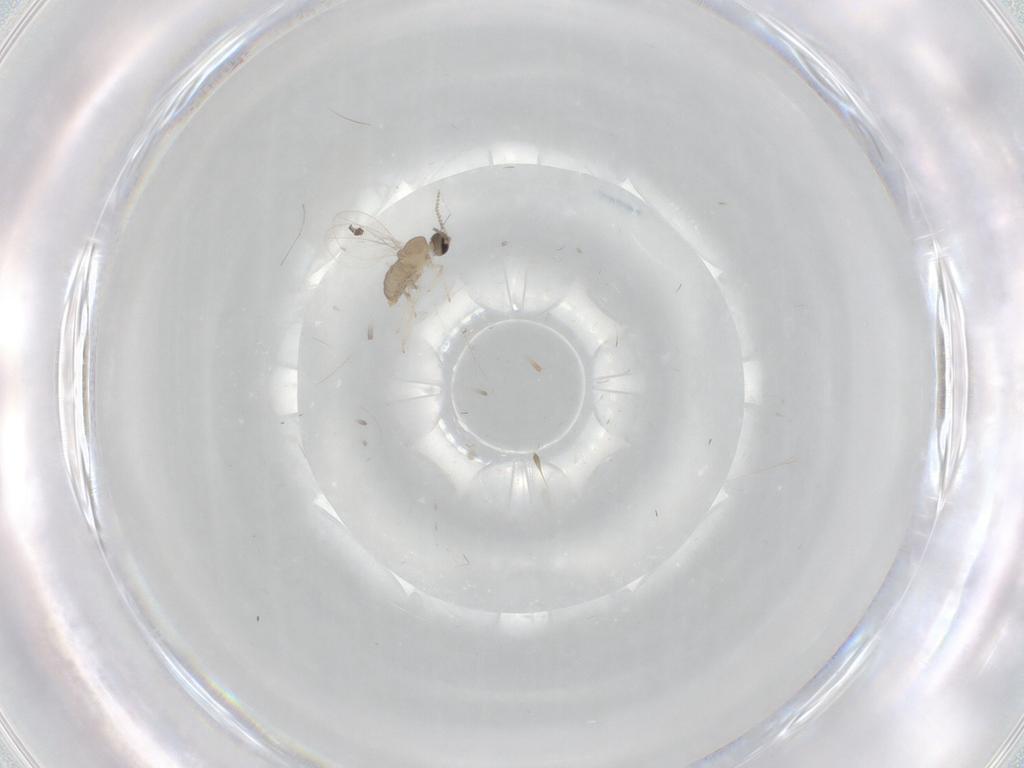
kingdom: Animalia
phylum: Arthropoda
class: Insecta
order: Diptera
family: Cecidomyiidae
